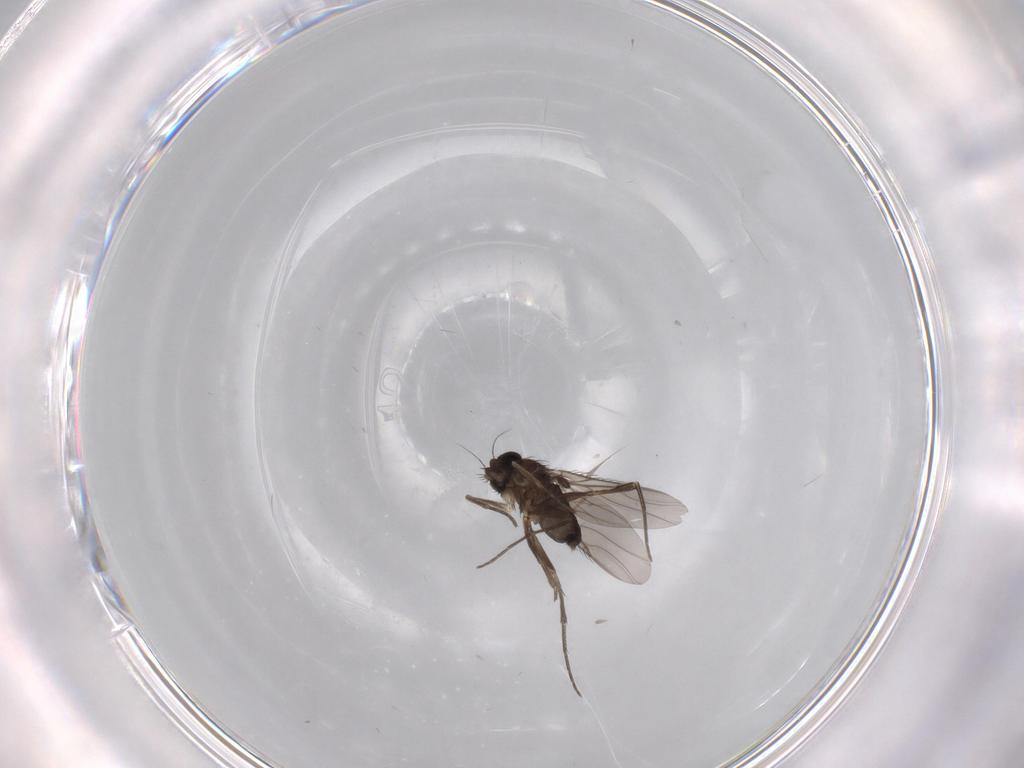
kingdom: Animalia
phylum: Arthropoda
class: Insecta
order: Diptera
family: Phoridae
